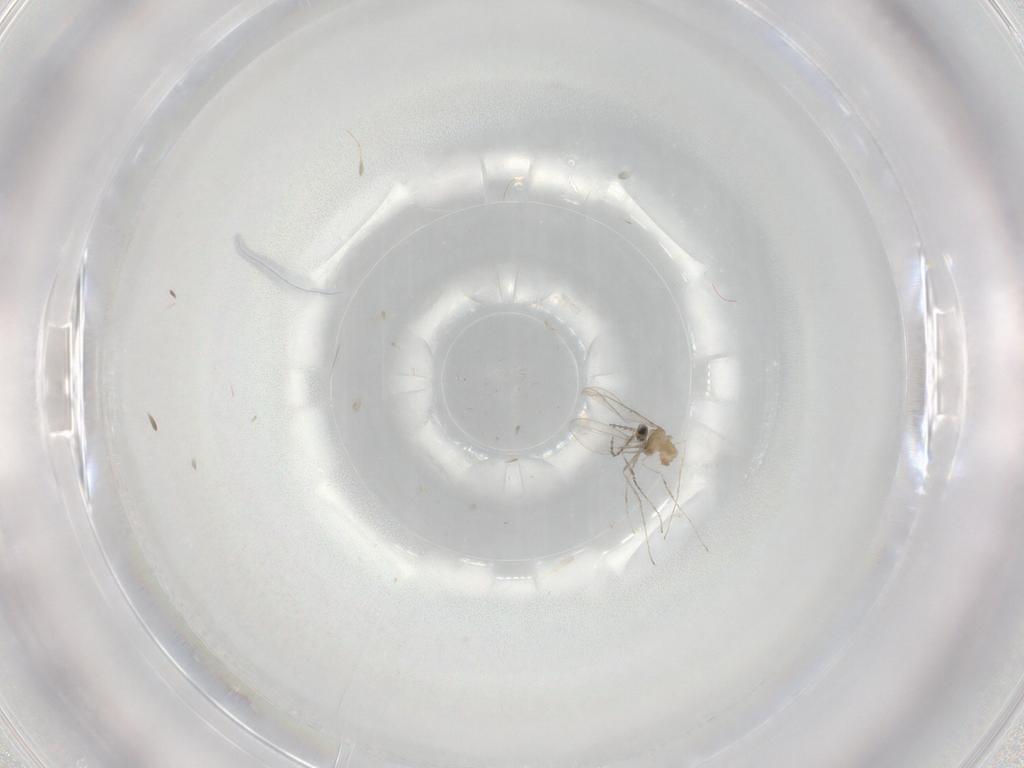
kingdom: Animalia
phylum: Arthropoda
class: Insecta
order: Diptera
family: Cecidomyiidae
